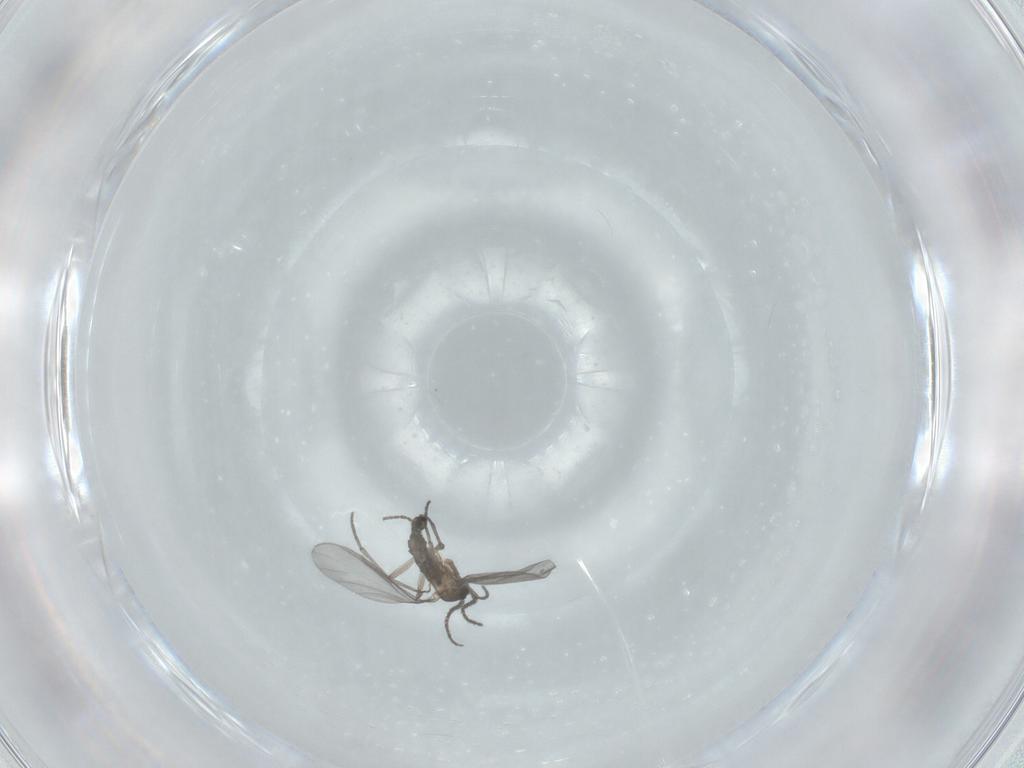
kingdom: Animalia
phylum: Arthropoda
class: Insecta
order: Diptera
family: Sciaridae
